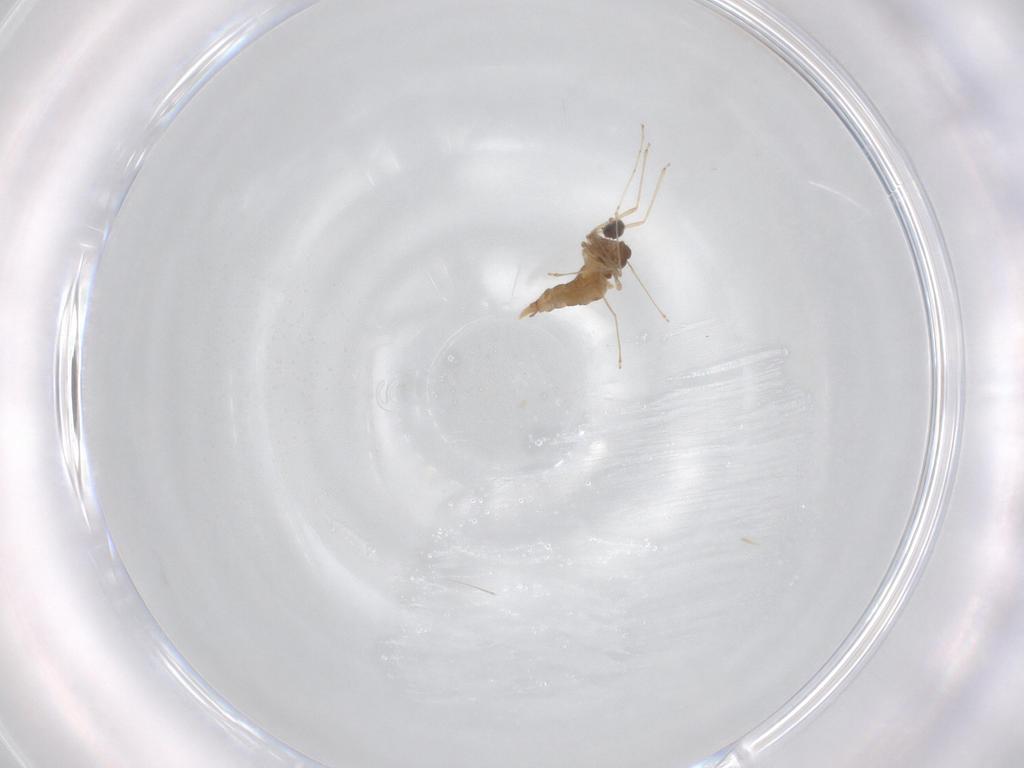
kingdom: Animalia
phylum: Arthropoda
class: Insecta
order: Diptera
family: Cecidomyiidae
